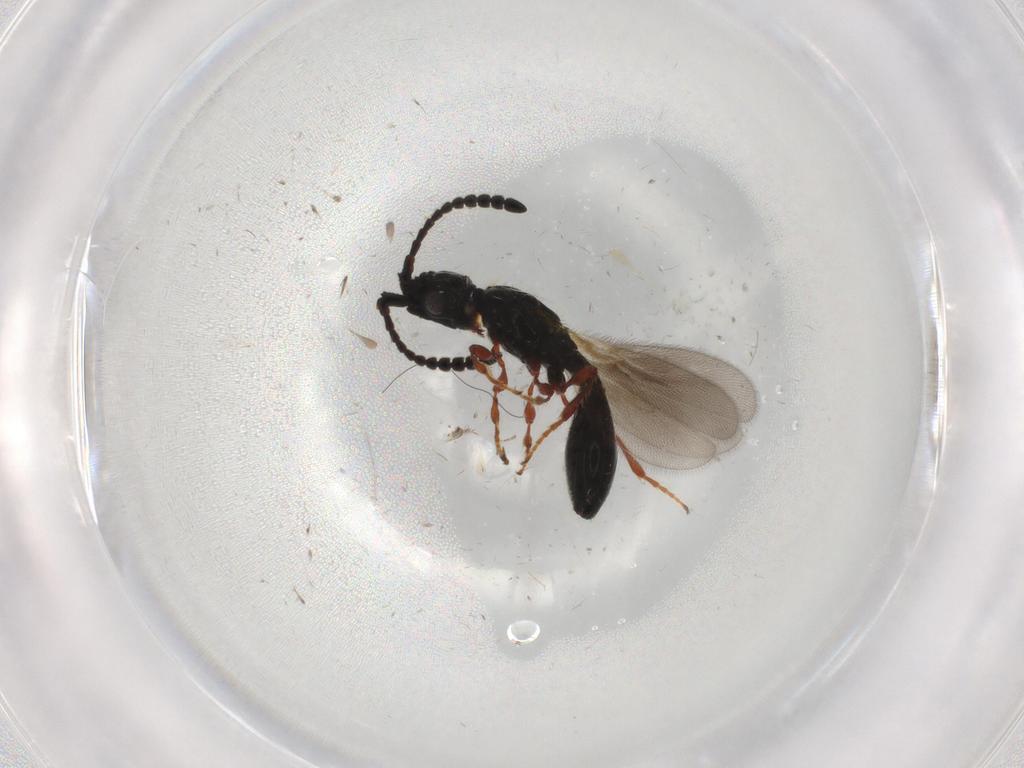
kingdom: Animalia
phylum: Arthropoda
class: Insecta
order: Hymenoptera
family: Diapriidae
